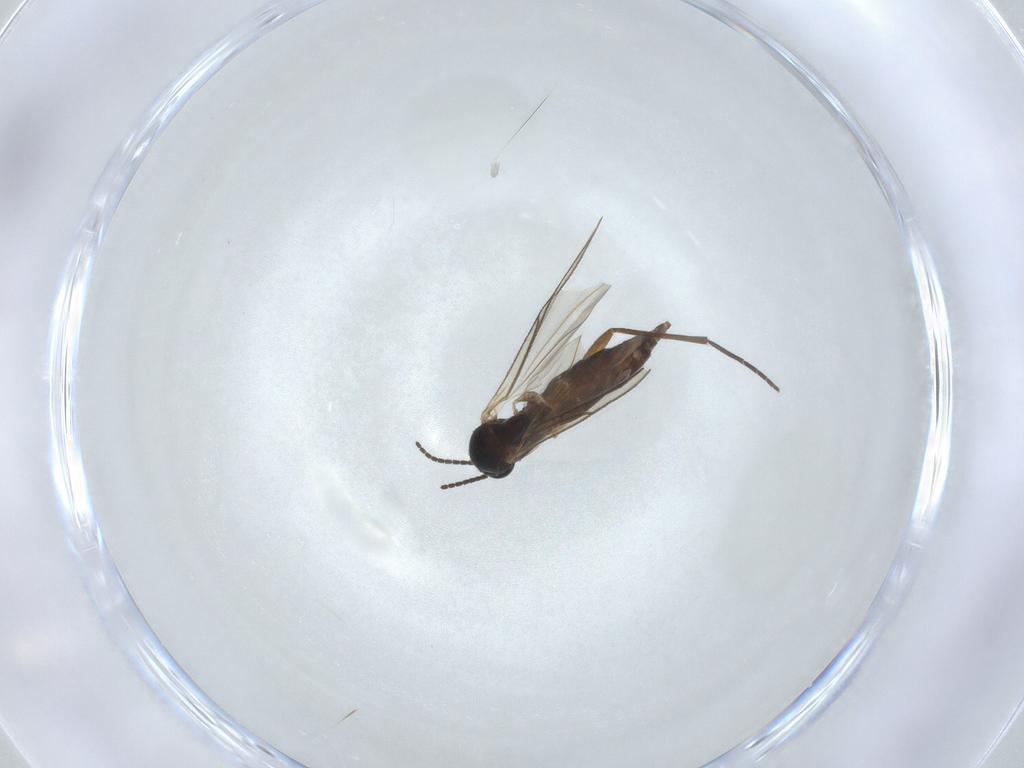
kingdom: Animalia
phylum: Arthropoda
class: Insecta
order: Diptera
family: Sciaridae
